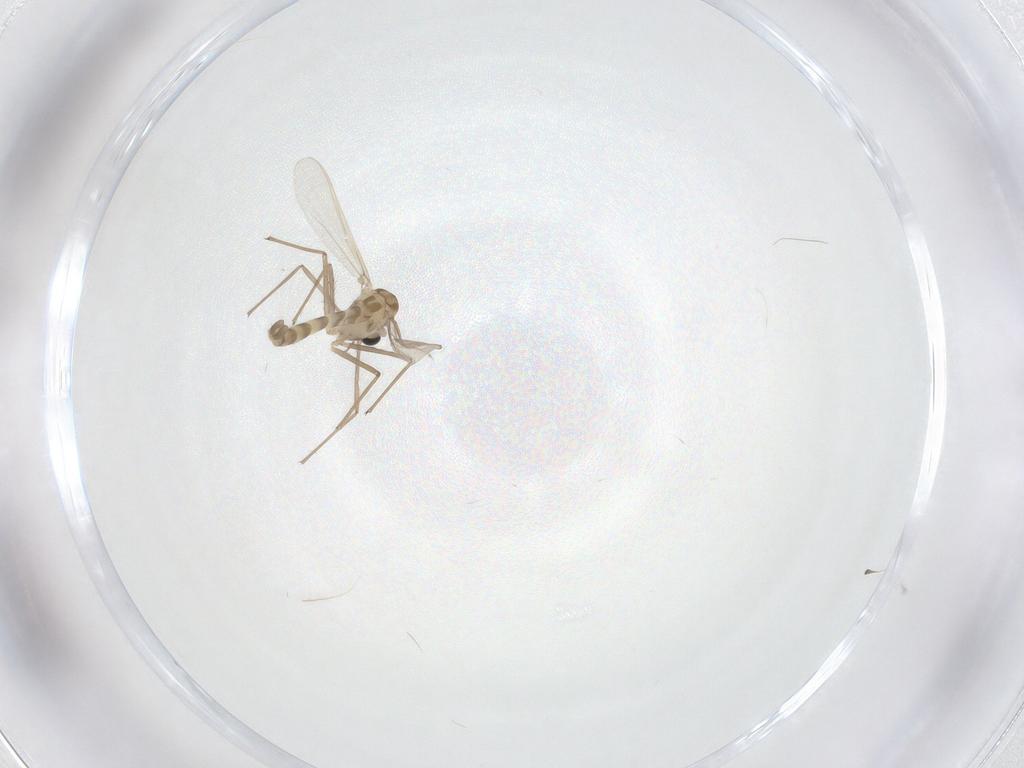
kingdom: Animalia
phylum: Arthropoda
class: Insecta
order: Diptera
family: Chironomidae
